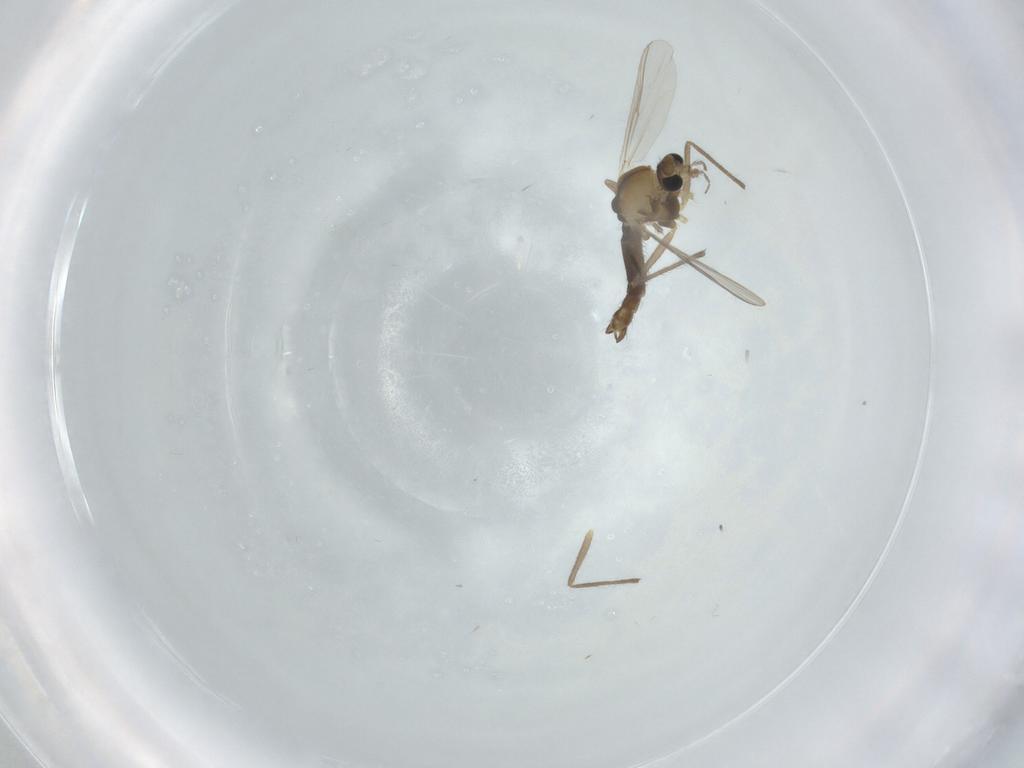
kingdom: Animalia
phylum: Arthropoda
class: Insecta
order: Diptera
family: Chironomidae
